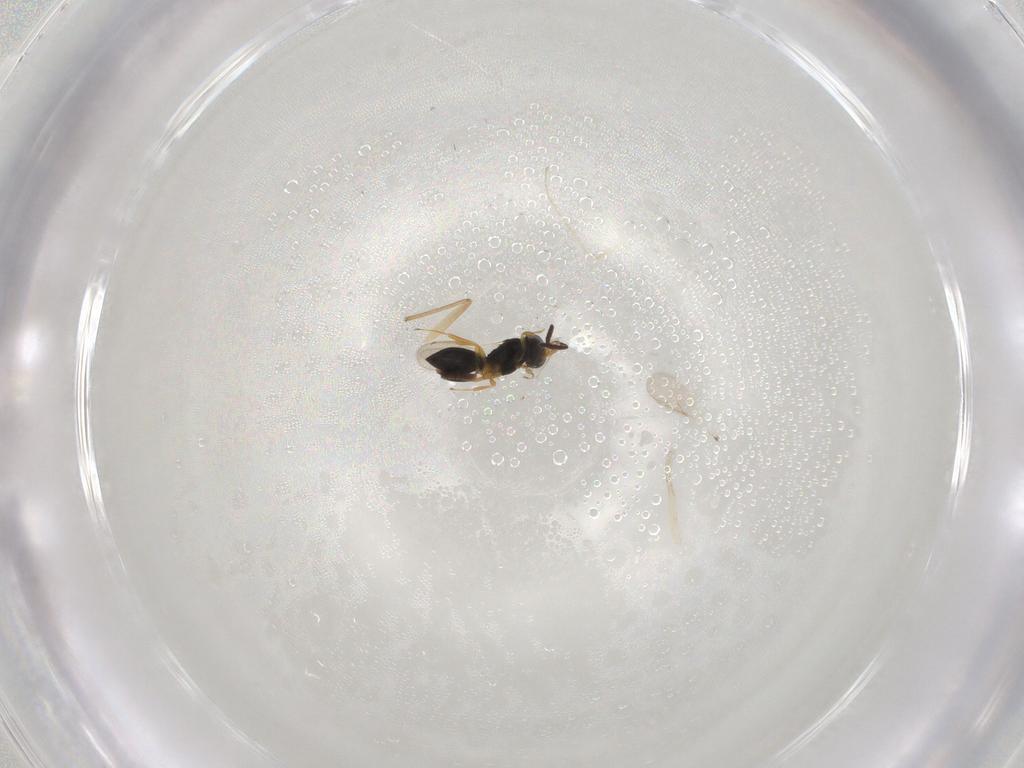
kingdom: Animalia
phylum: Arthropoda
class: Insecta
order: Hymenoptera
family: Scelionidae
